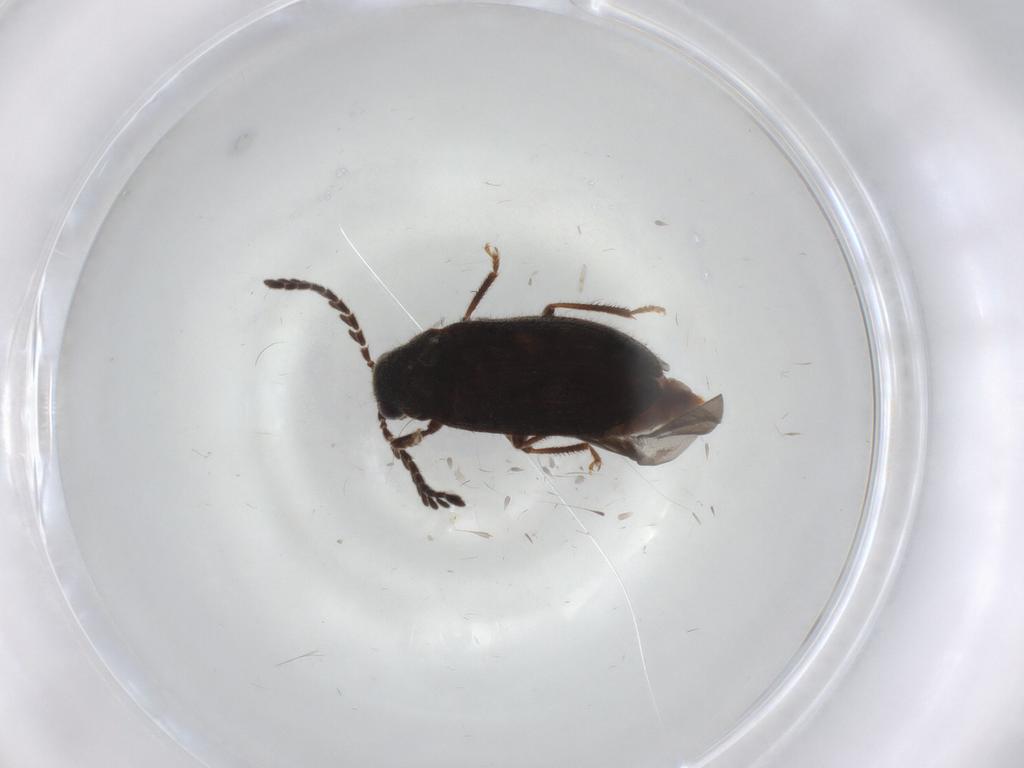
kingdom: Animalia
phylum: Arthropoda
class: Insecta
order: Coleoptera
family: Ptilodactylidae
